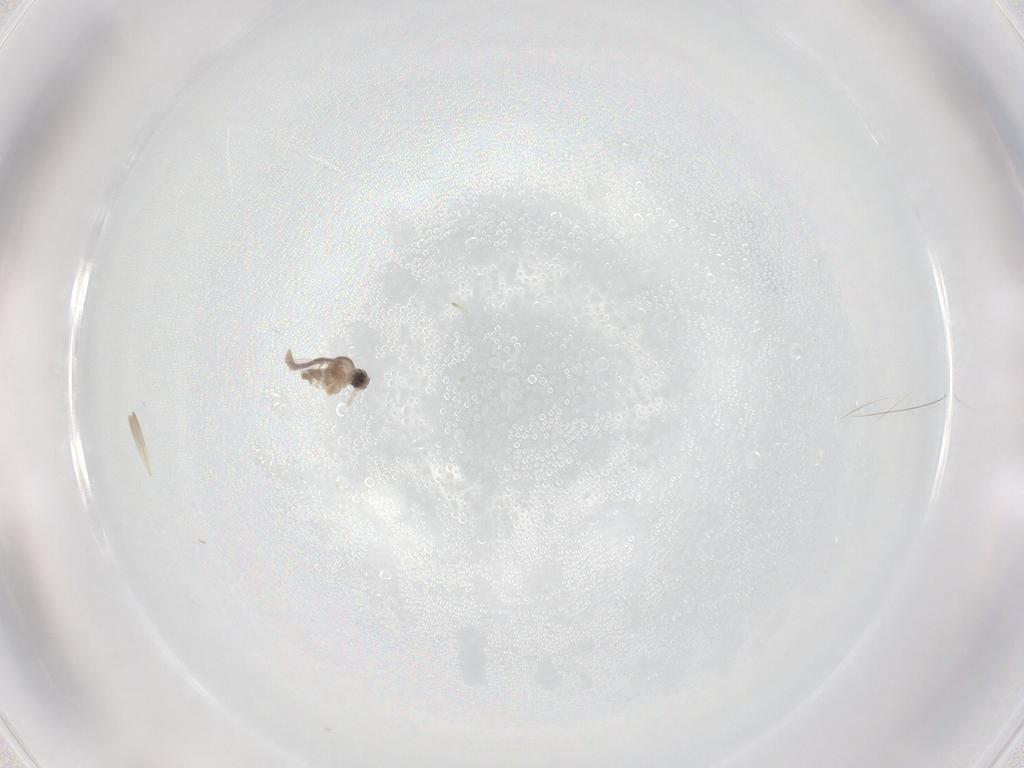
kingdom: Animalia
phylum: Arthropoda
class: Insecta
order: Diptera
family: Cecidomyiidae
